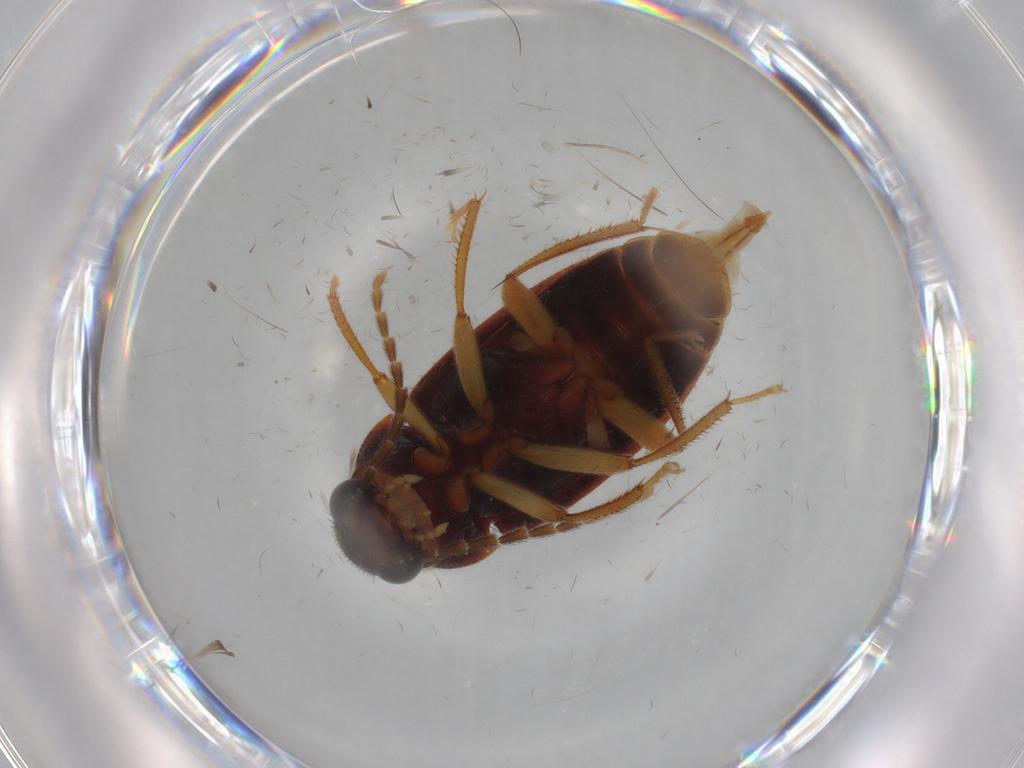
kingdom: Animalia
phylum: Arthropoda
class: Insecta
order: Coleoptera
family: Ptilodactylidae
